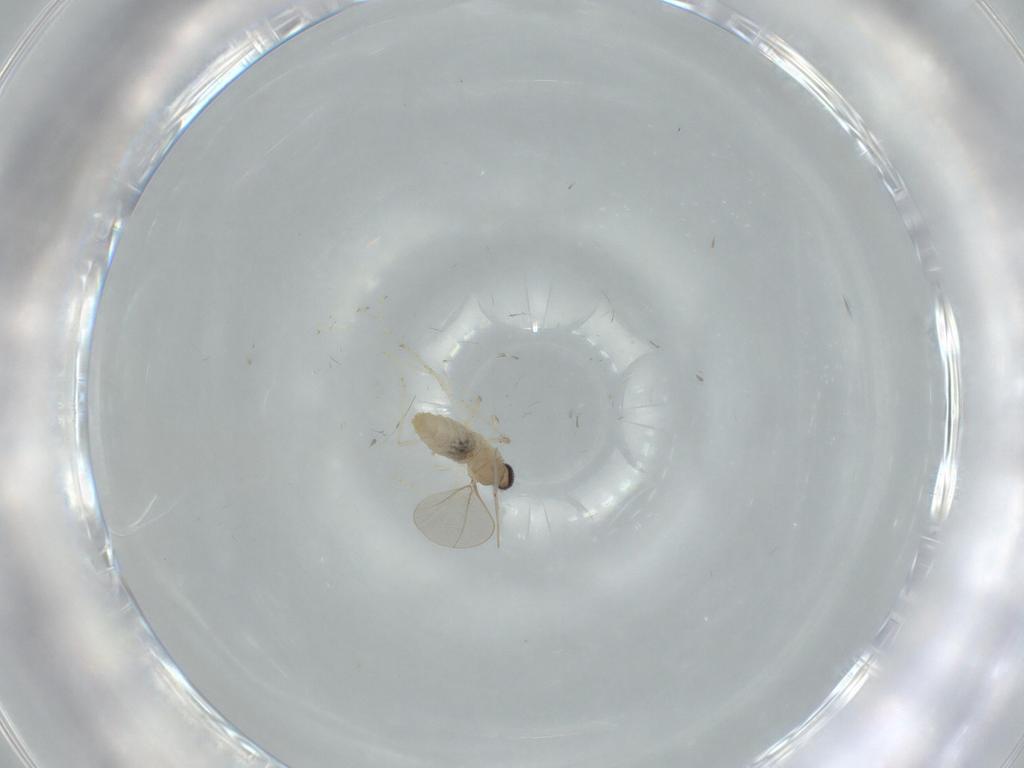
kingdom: Animalia
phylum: Arthropoda
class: Insecta
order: Diptera
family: Cecidomyiidae
